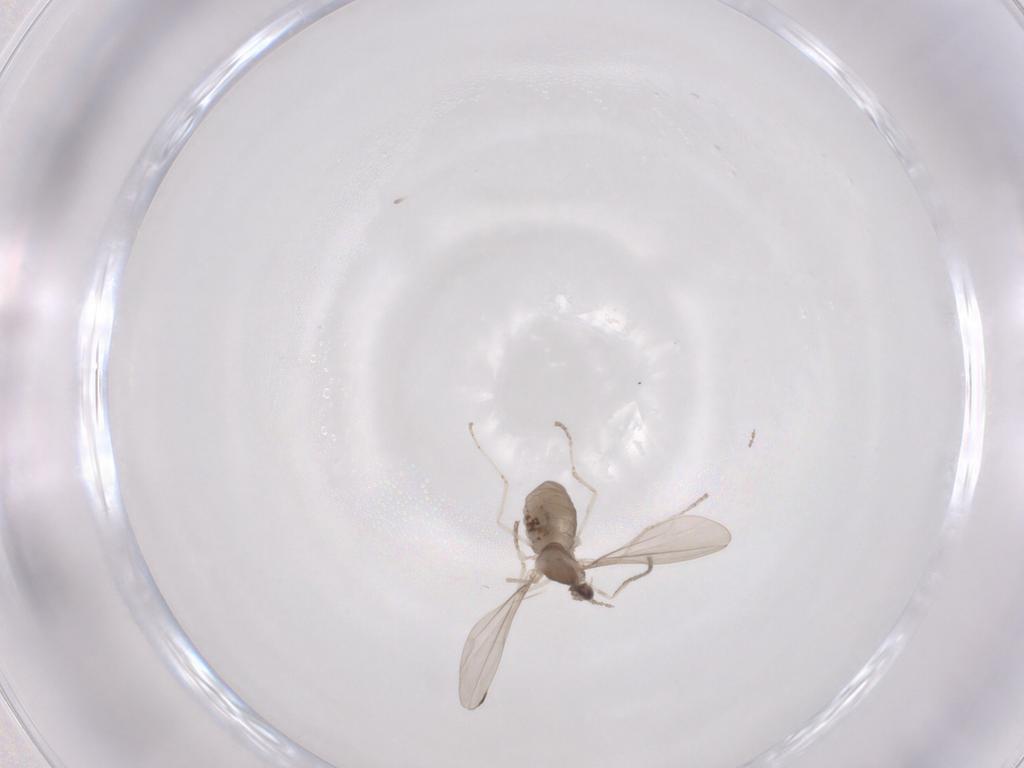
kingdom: Animalia
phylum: Arthropoda
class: Insecta
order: Diptera
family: Cecidomyiidae
